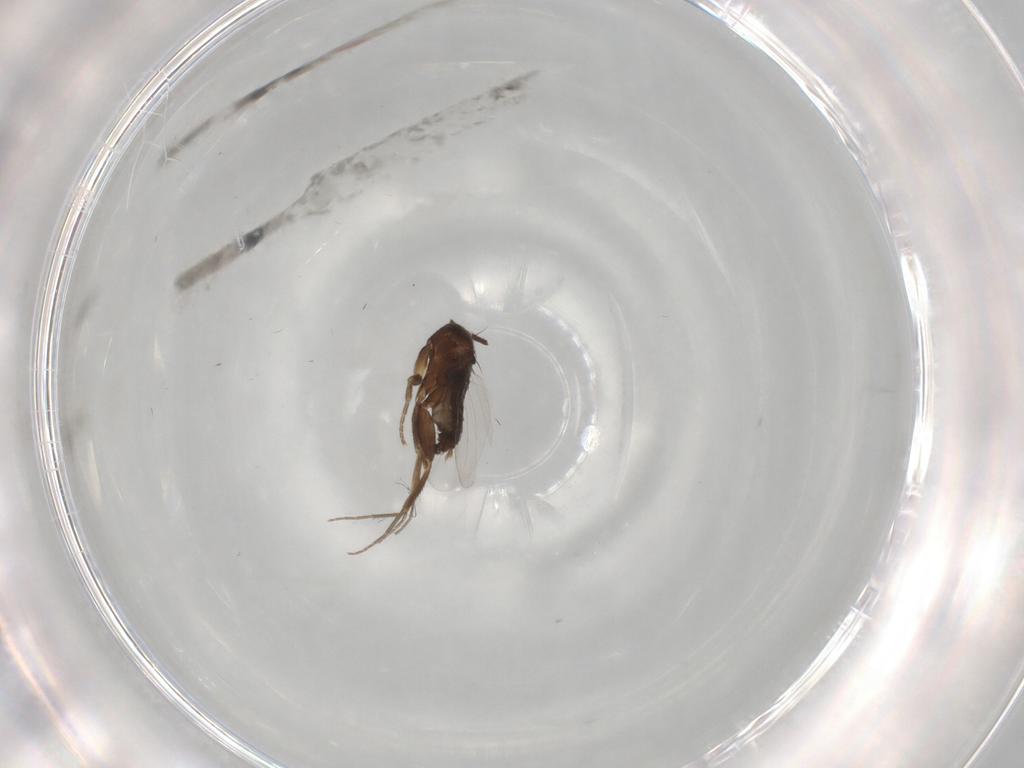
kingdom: Animalia
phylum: Arthropoda
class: Insecta
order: Diptera
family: Phoridae
